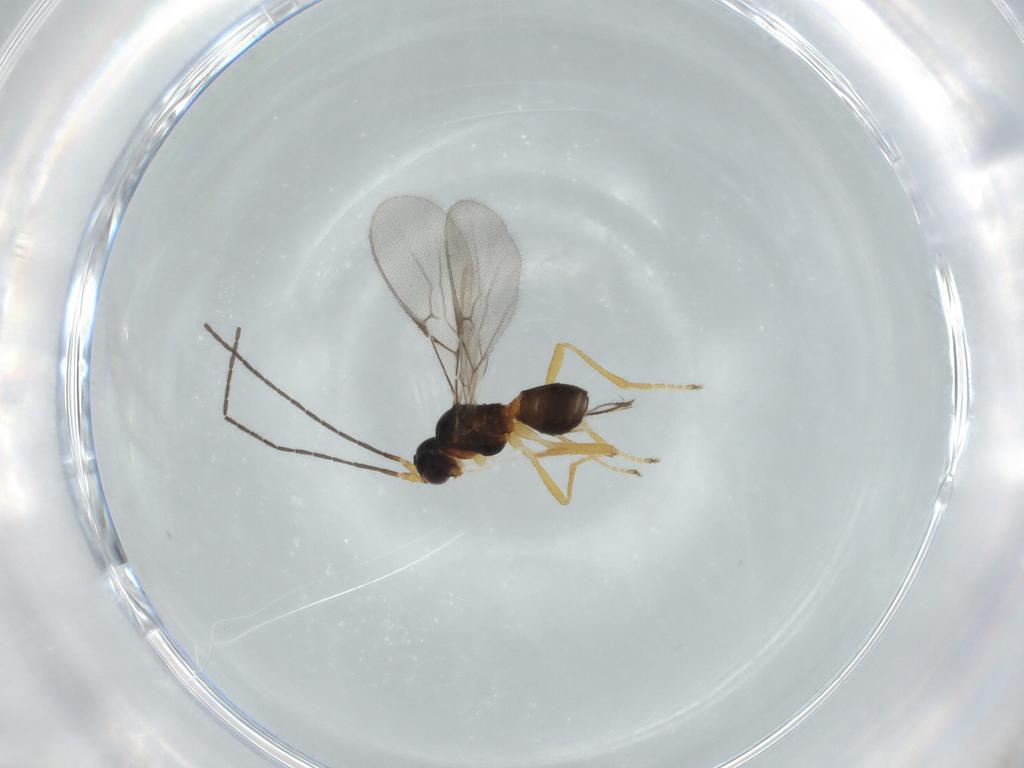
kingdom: Animalia
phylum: Arthropoda
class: Insecta
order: Hymenoptera
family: Braconidae
